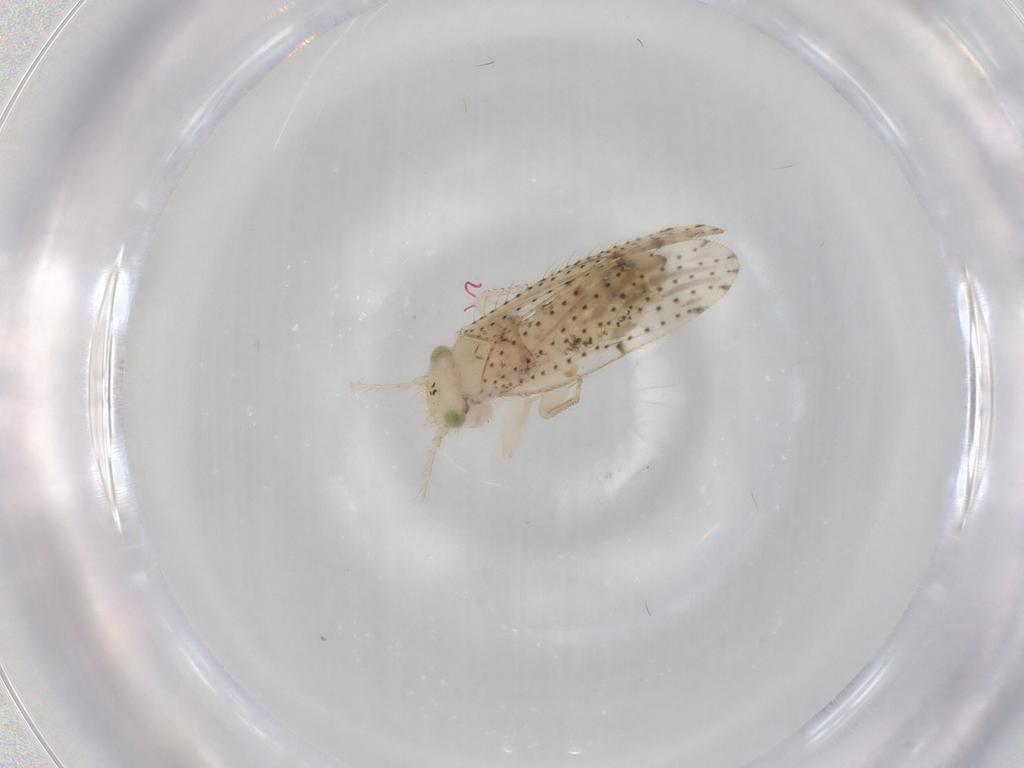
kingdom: Animalia
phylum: Arthropoda
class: Insecta
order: Psocodea
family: Myopsocidae
